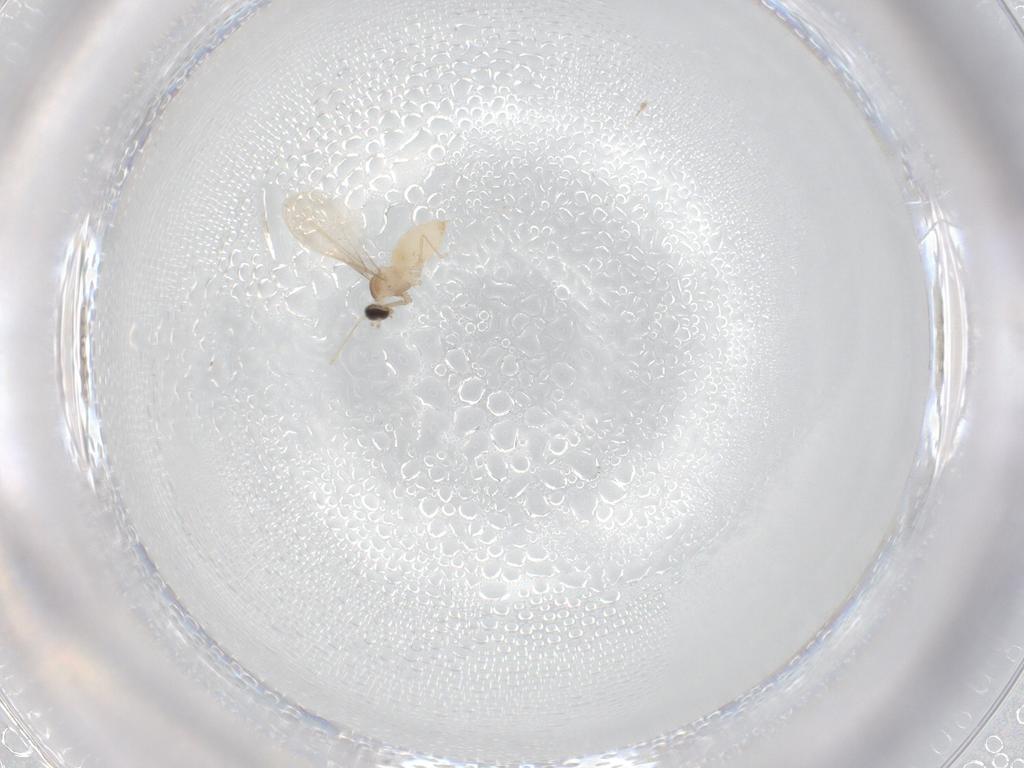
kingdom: Animalia
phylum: Arthropoda
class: Insecta
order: Diptera
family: Cecidomyiidae
